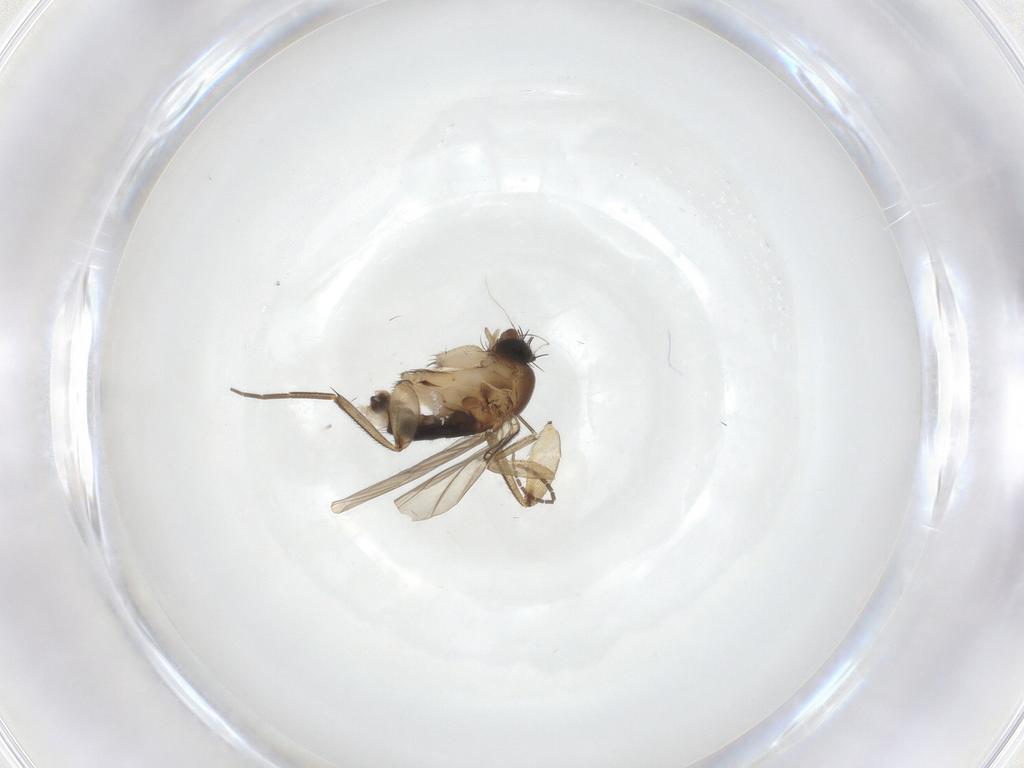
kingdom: Animalia
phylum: Arthropoda
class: Insecta
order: Diptera
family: Sciaridae
